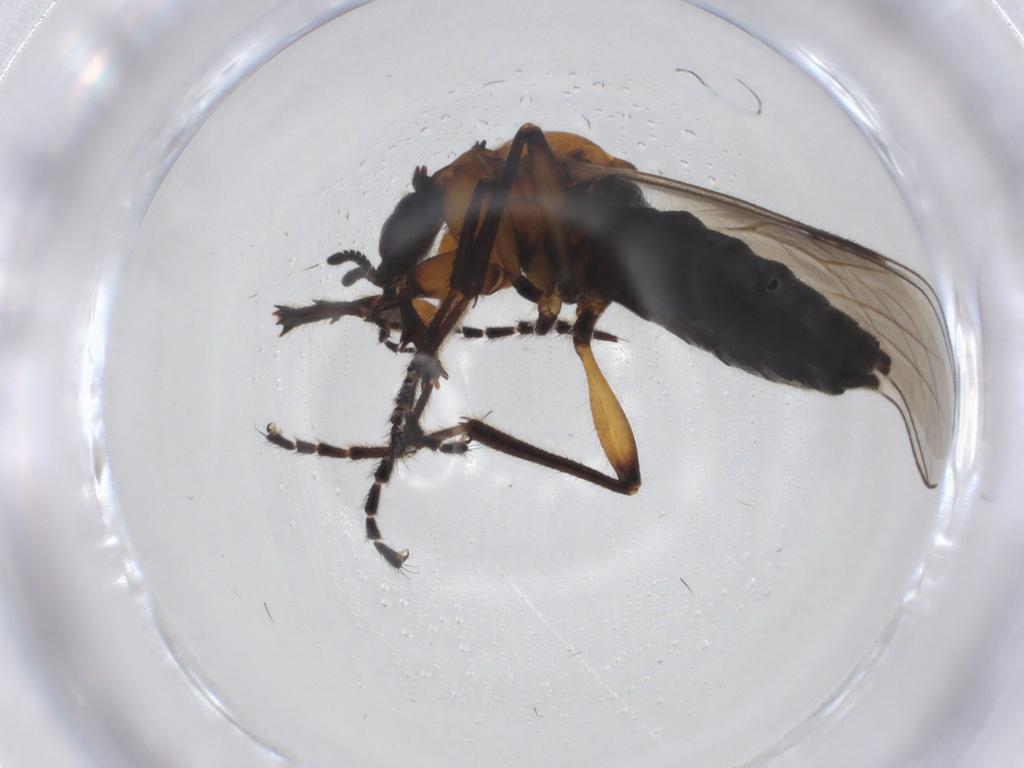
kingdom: Animalia
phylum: Arthropoda
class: Insecta
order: Diptera
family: Bibionidae
